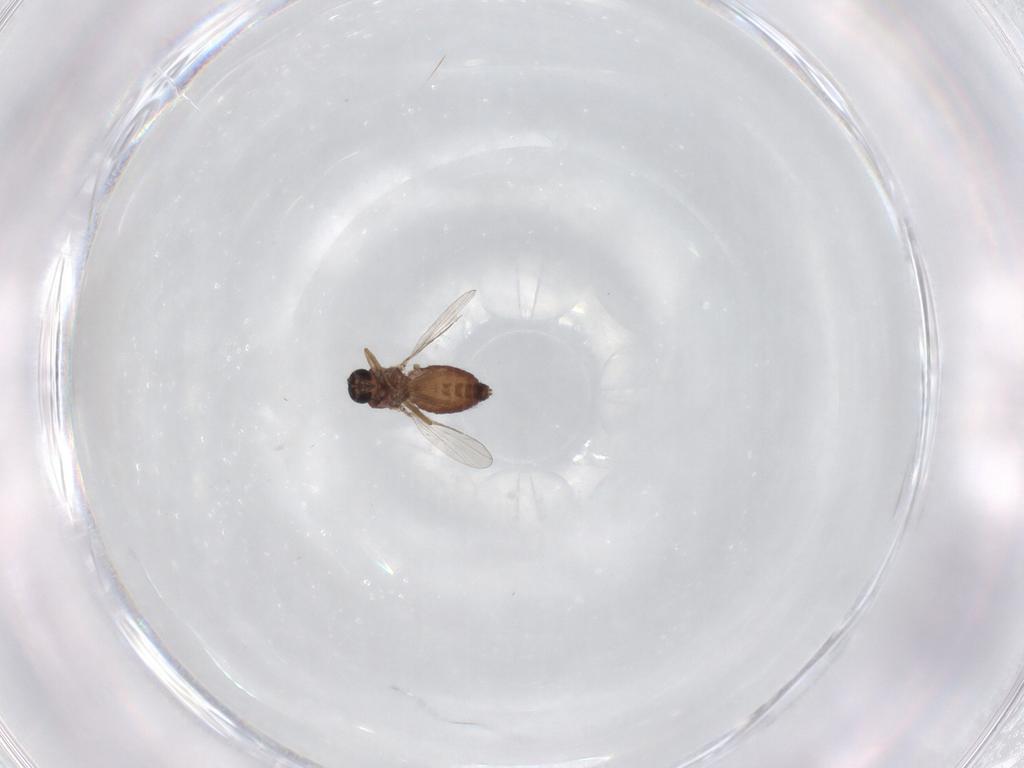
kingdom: Animalia
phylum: Arthropoda
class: Insecta
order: Diptera
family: Ceratopogonidae
